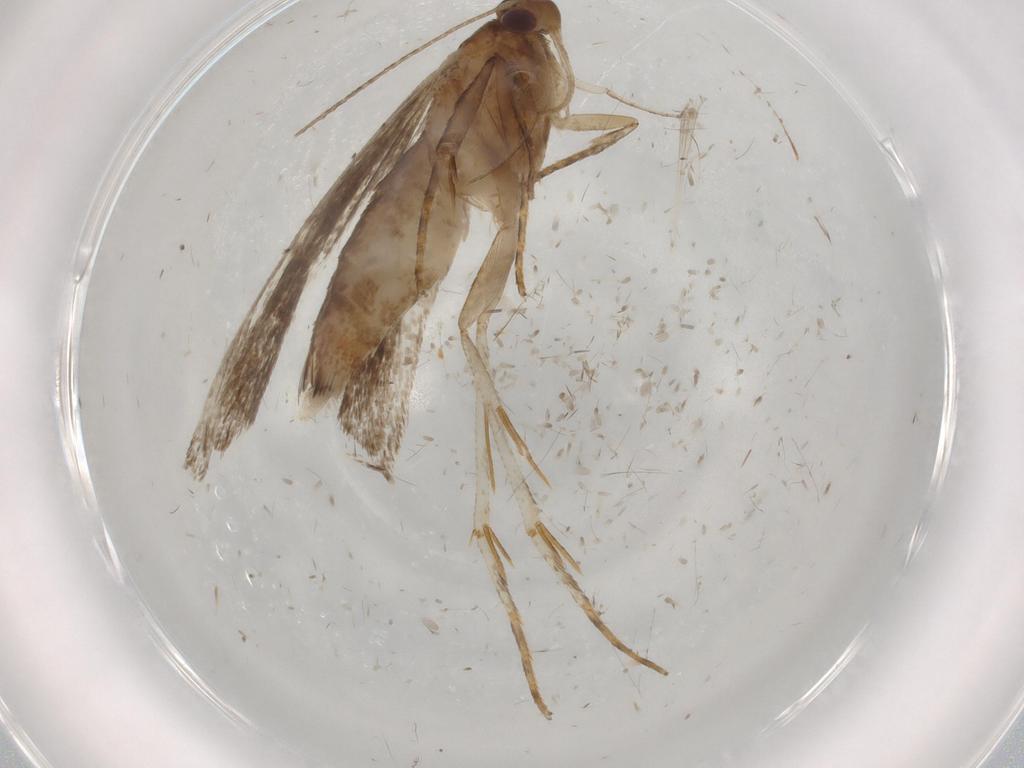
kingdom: Animalia
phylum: Arthropoda
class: Insecta
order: Lepidoptera
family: Gelechiidae
